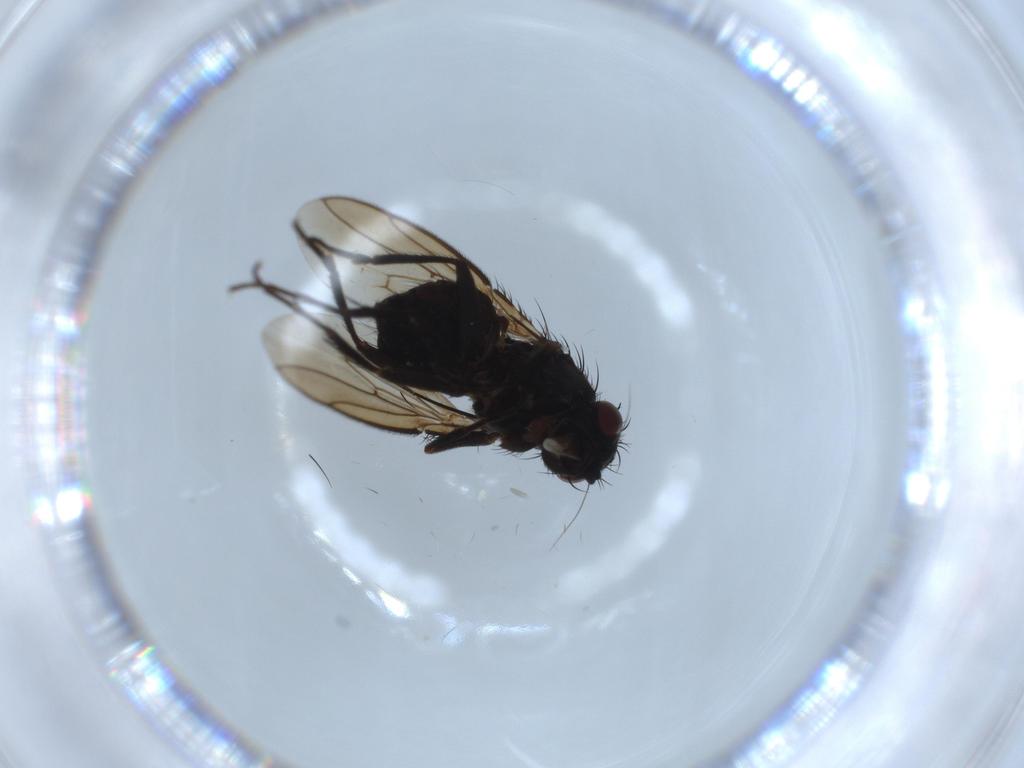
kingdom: Animalia
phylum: Arthropoda
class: Insecta
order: Diptera
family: Sphaeroceridae
